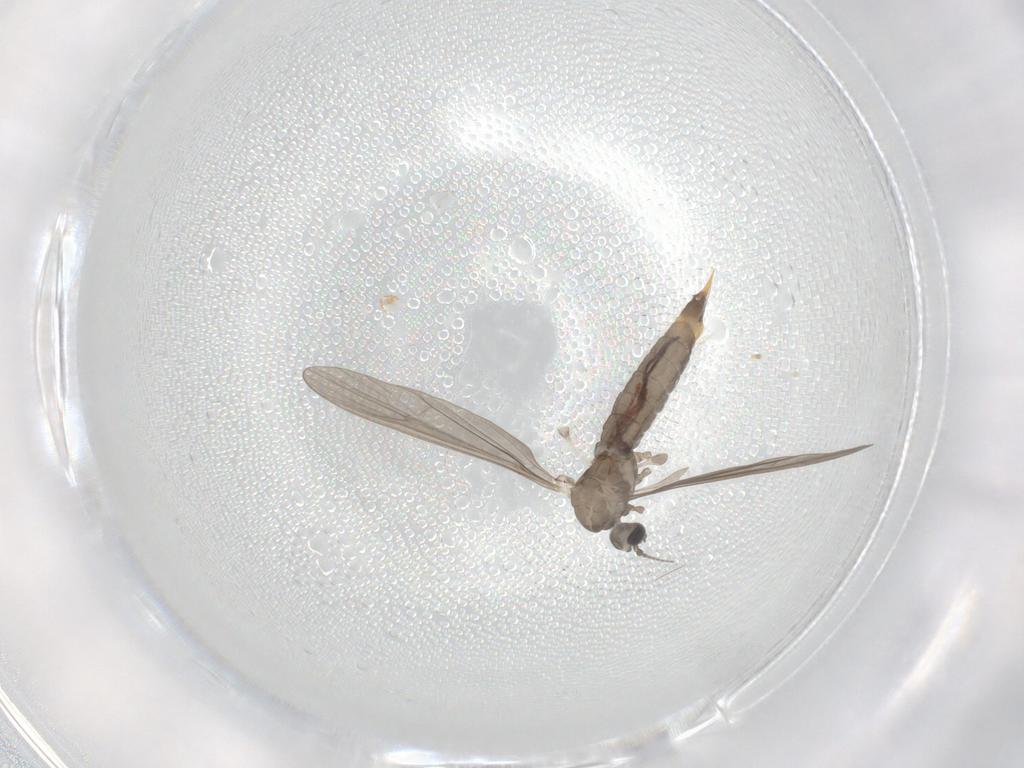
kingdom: Animalia
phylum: Arthropoda
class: Insecta
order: Diptera
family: Limoniidae
